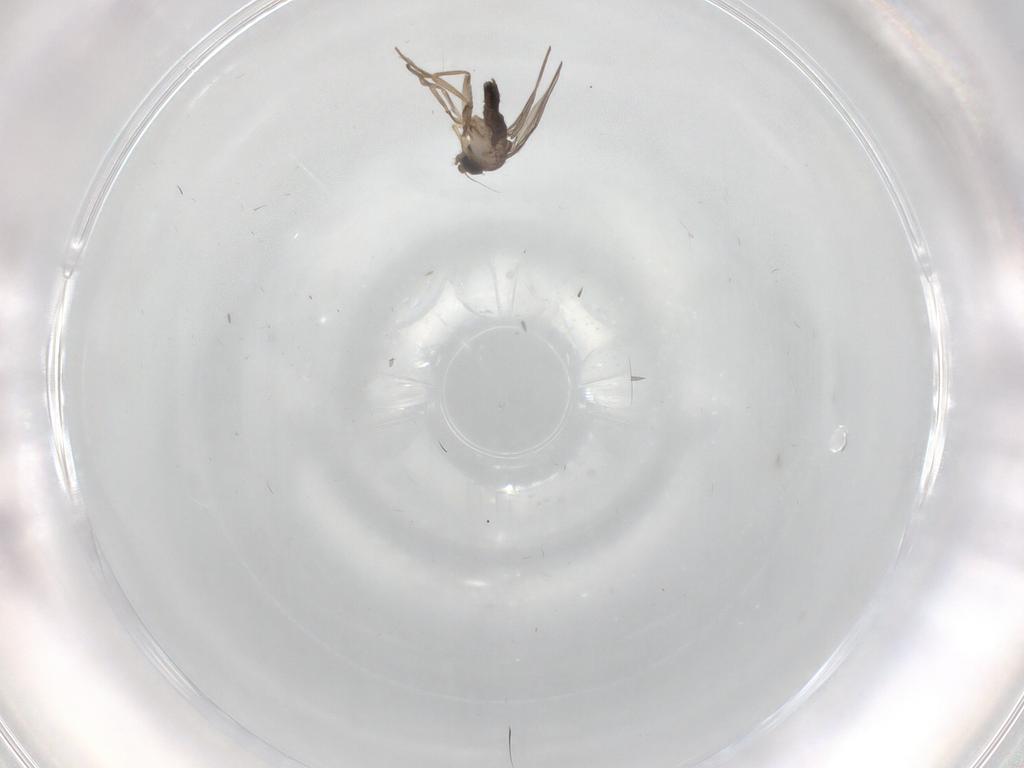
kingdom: Animalia
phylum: Arthropoda
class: Insecta
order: Diptera
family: Phoridae
